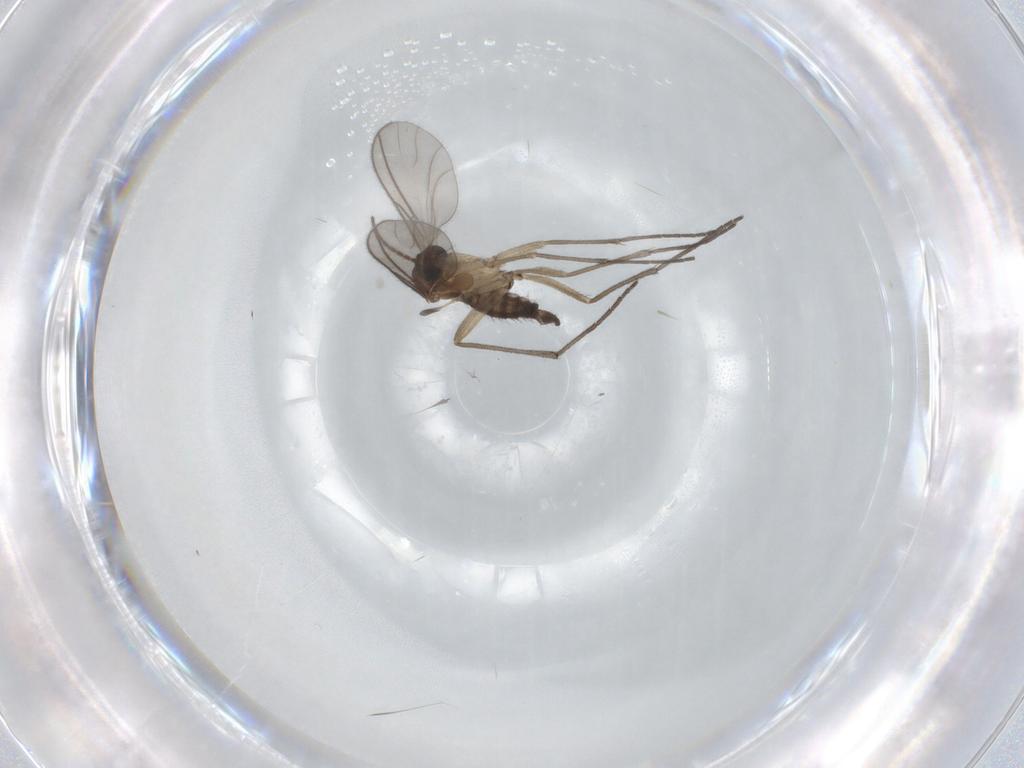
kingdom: Animalia
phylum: Arthropoda
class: Insecta
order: Diptera
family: Sciaridae
